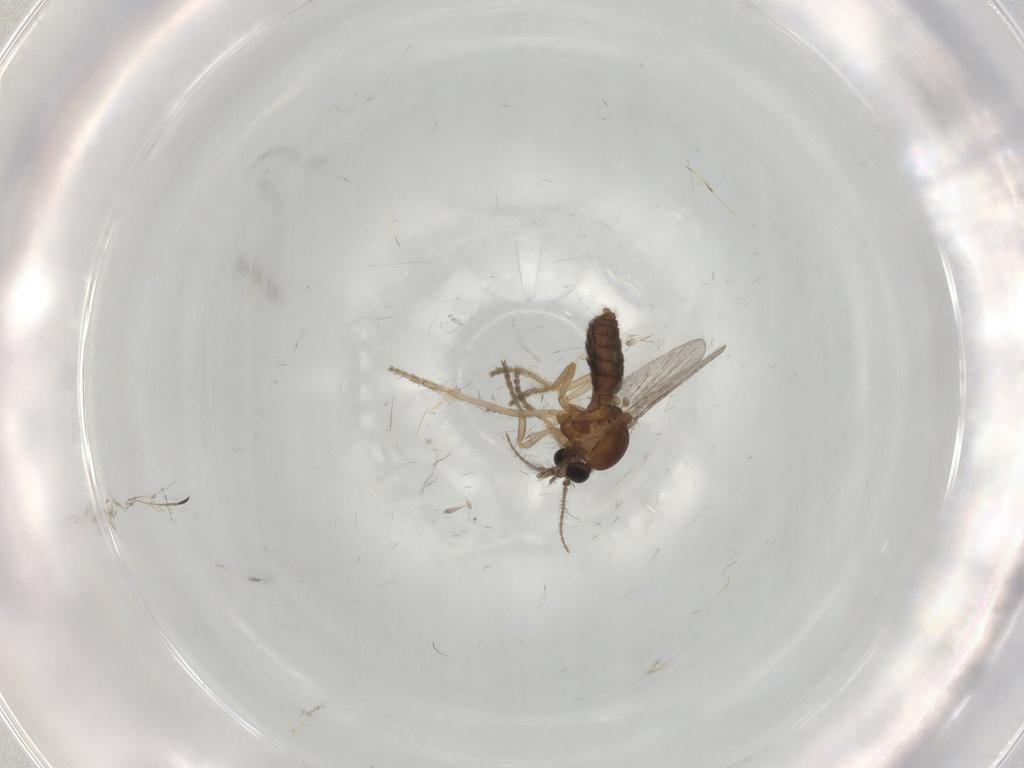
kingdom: Animalia
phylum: Arthropoda
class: Insecta
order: Diptera
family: Ceratopogonidae
